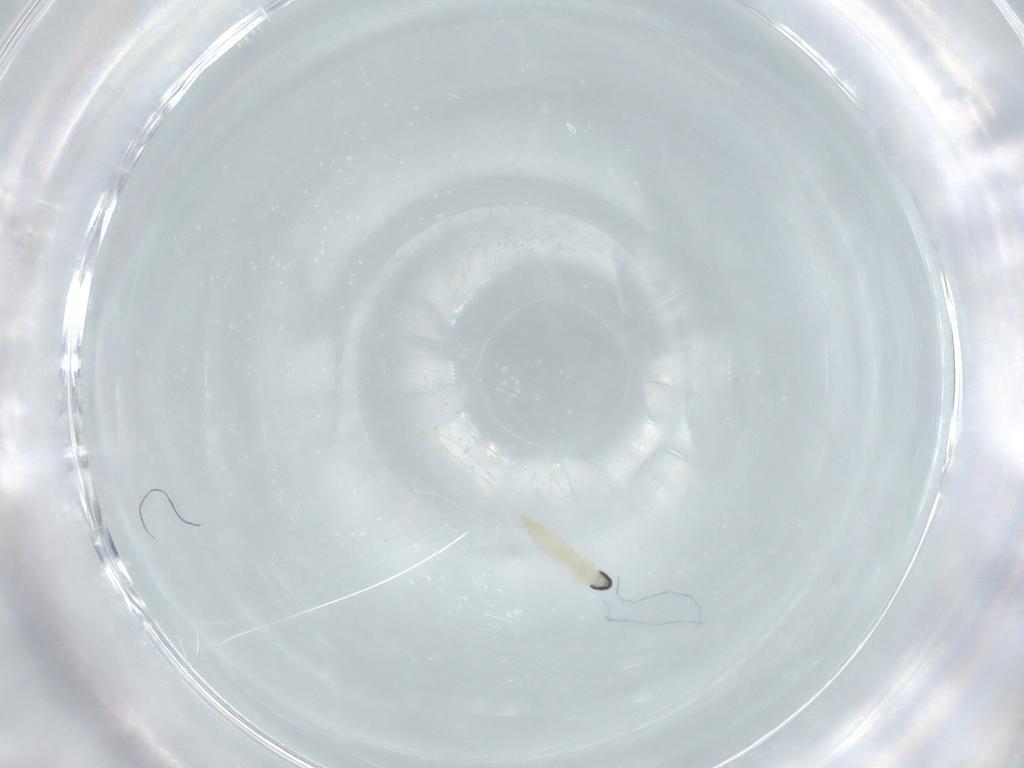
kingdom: Animalia
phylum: Arthropoda
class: Insecta
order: Diptera
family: Cecidomyiidae
